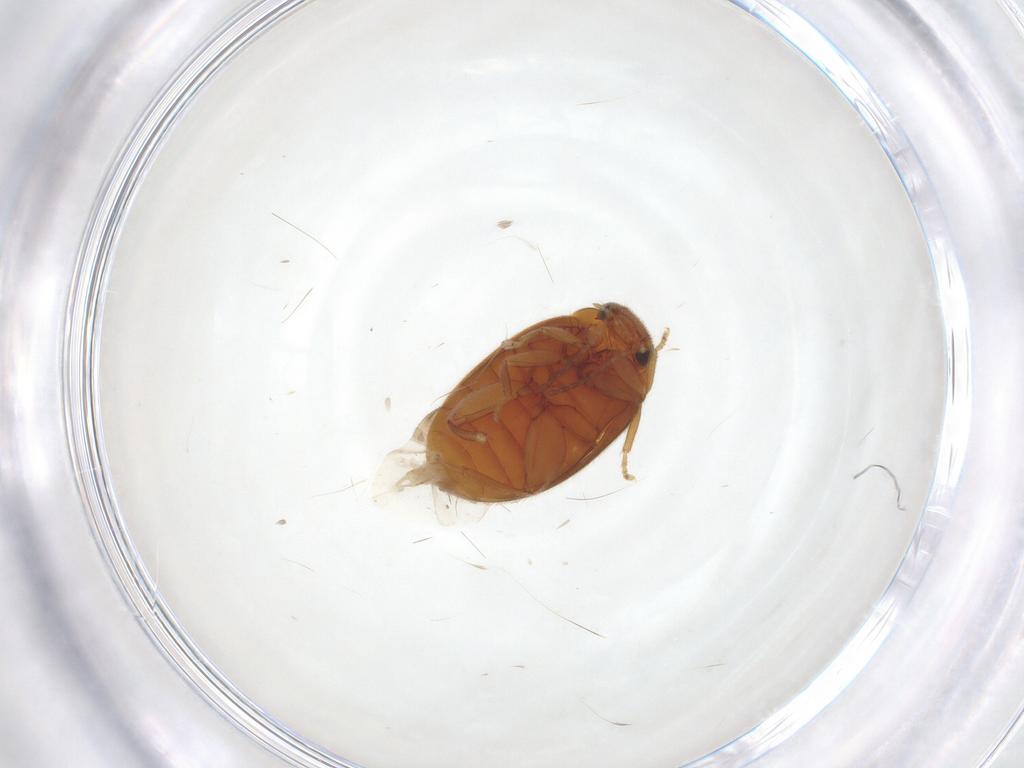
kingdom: Animalia
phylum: Arthropoda
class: Insecta
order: Coleoptera
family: Scirtidae
